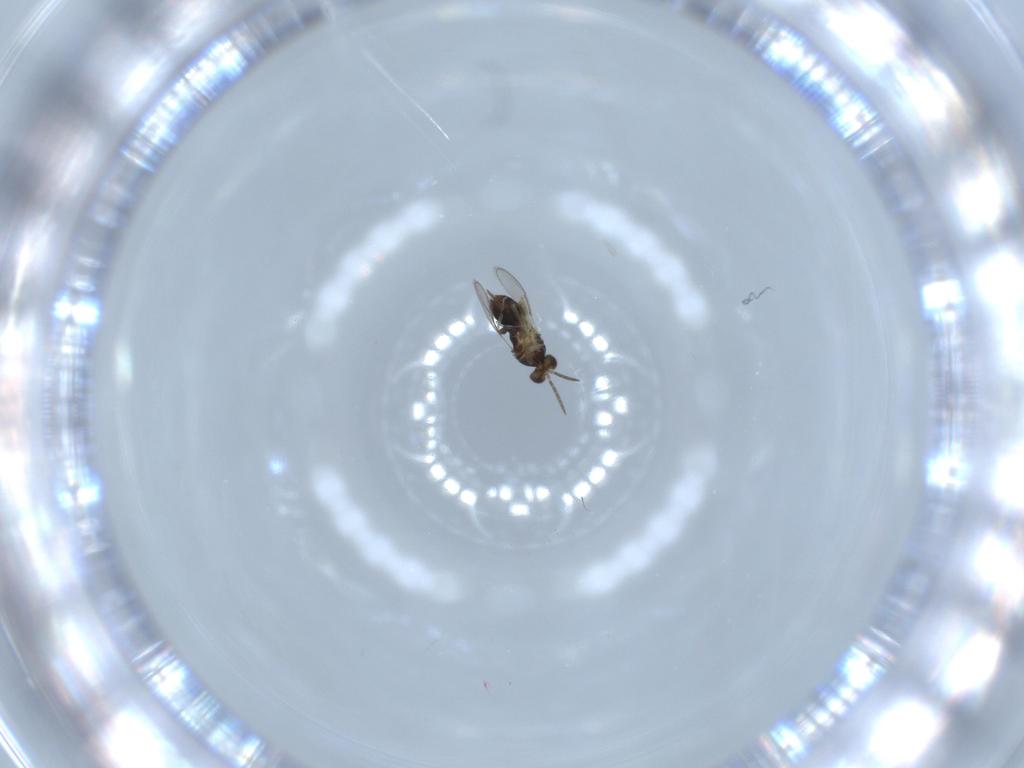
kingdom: Animalia
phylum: Arthropoda
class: Insecta
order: Hymenoptera
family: Aphelinidae
